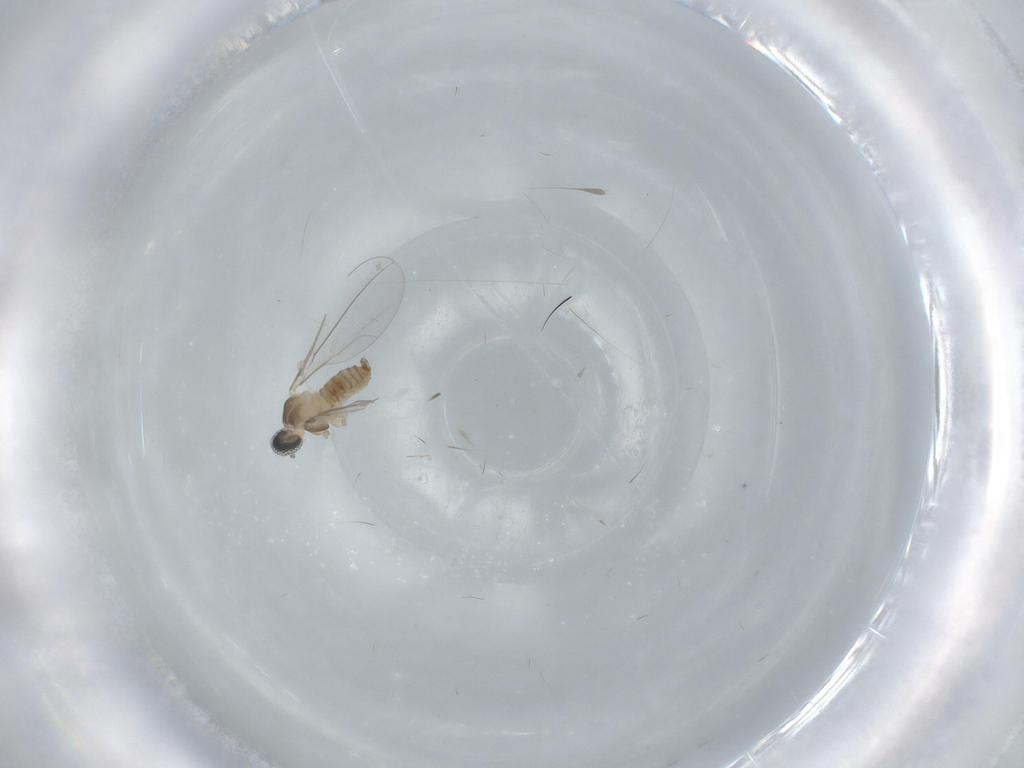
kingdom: Animalia
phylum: Arthropoda
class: Insecta
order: Diptera
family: Cecidomyiidae
